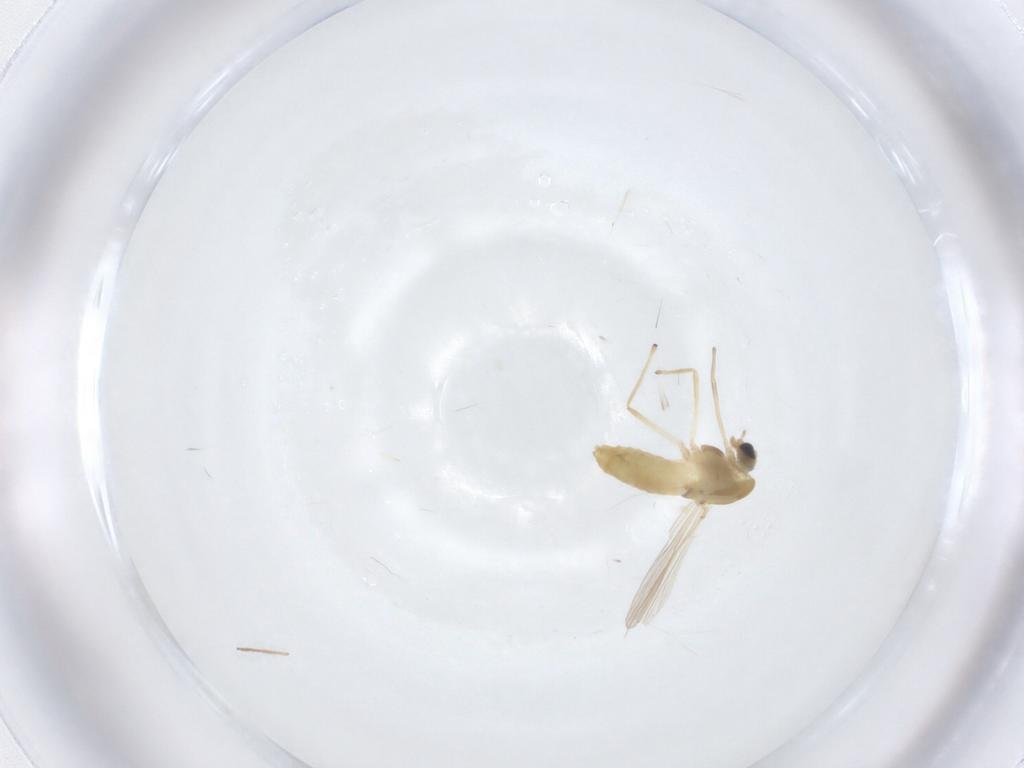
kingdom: Animalia
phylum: Arthropoda
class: Insecta
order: Diptera
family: Chironomidae
